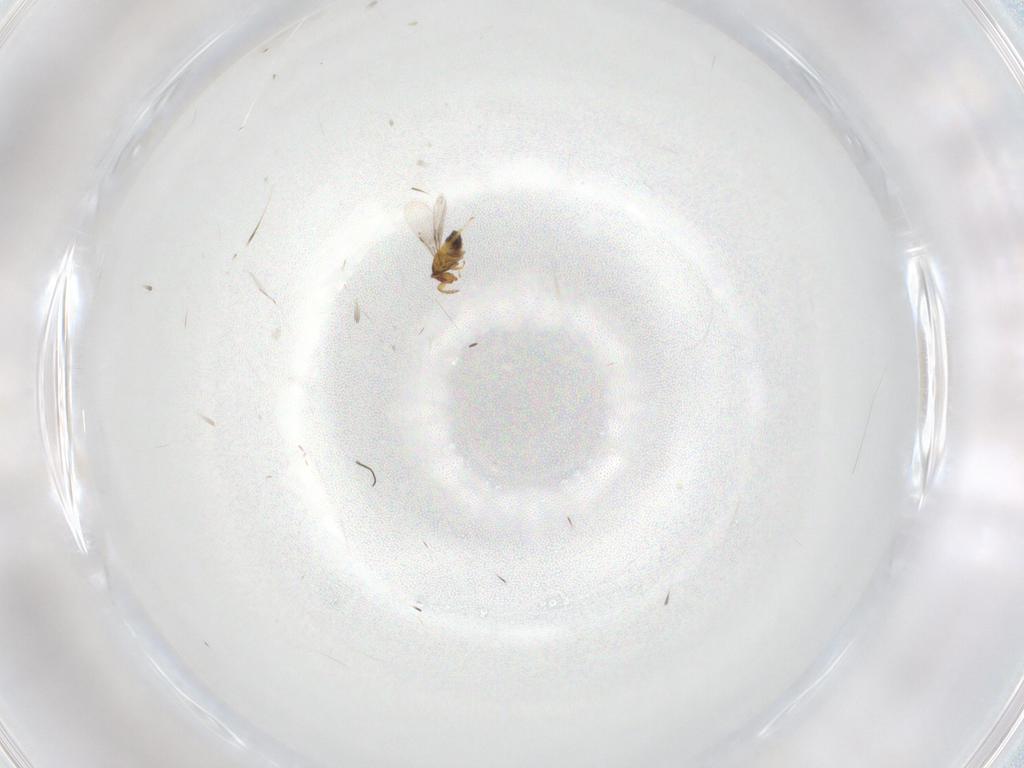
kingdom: Animalia
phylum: Arthropoda
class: Insecta
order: Hymenoptera
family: Trichogrammatidae
